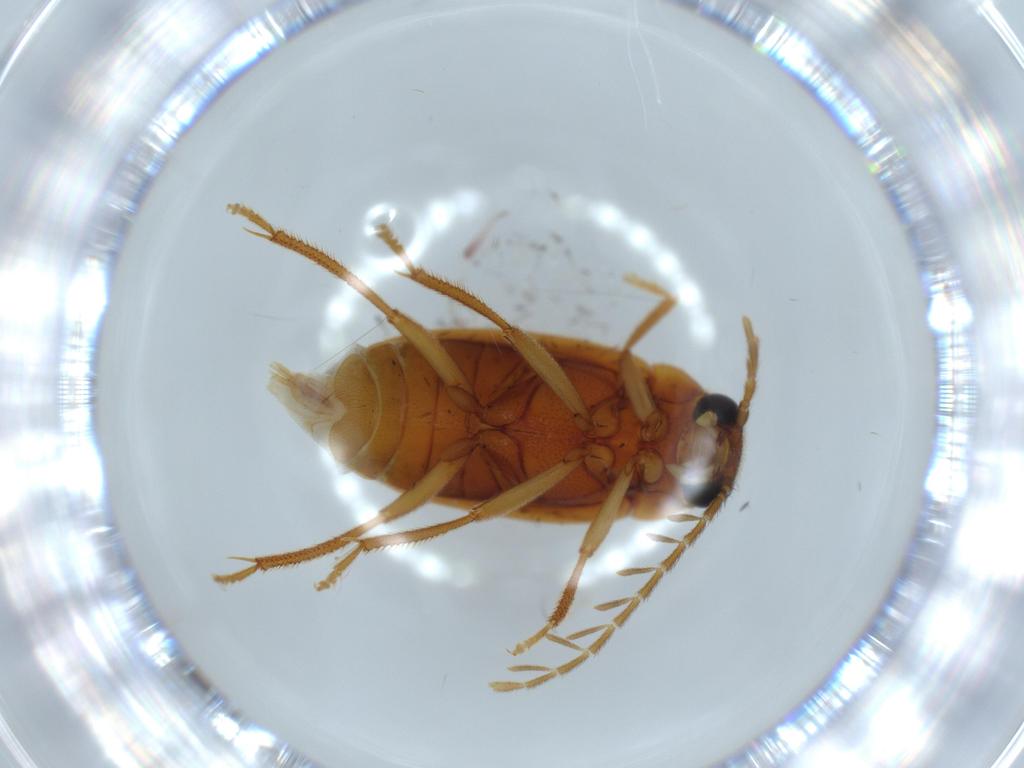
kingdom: Animalia
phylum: Arthropoda
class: Insecta
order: Coleoptera
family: Ptilodactylidae
